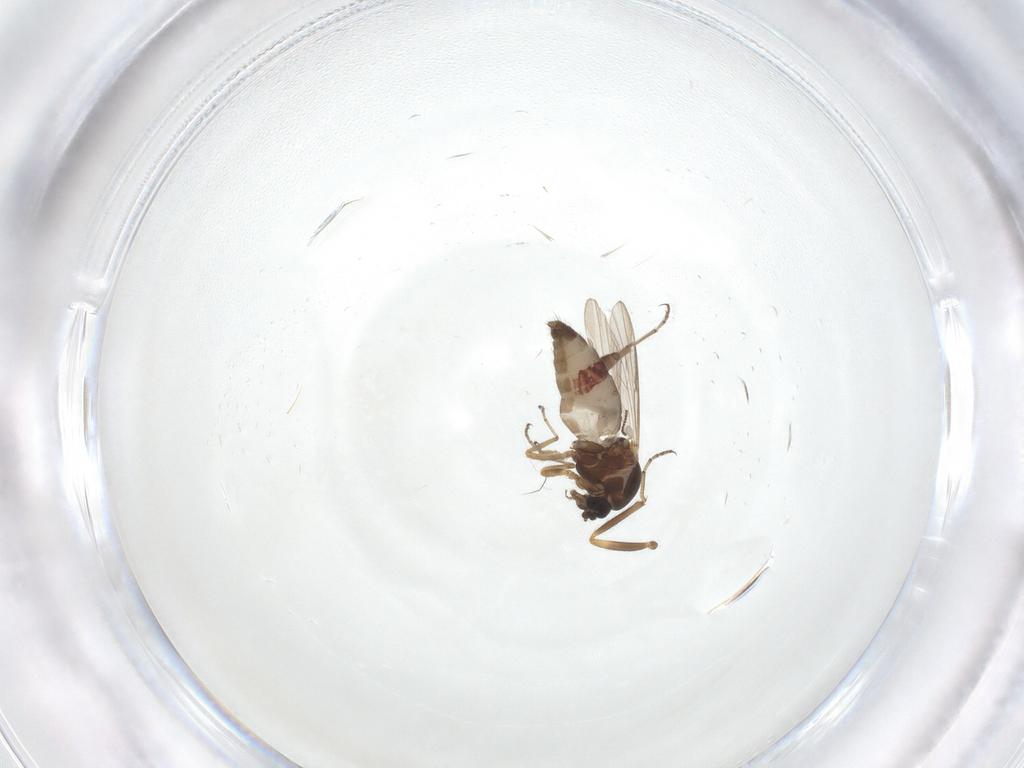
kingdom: Animalia
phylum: Arthropoda
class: Insecta
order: Diptera
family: Ceratopogonidae
